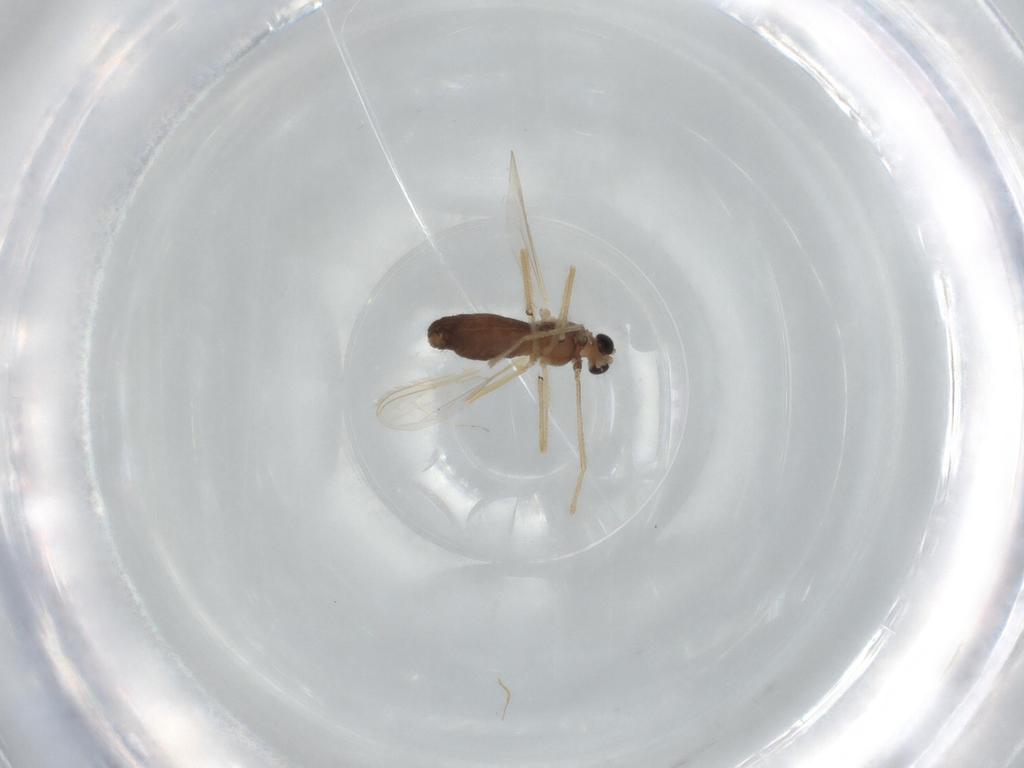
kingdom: Animalia
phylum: Arthropoda
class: Insecta
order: Diptera
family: Chironomidae
